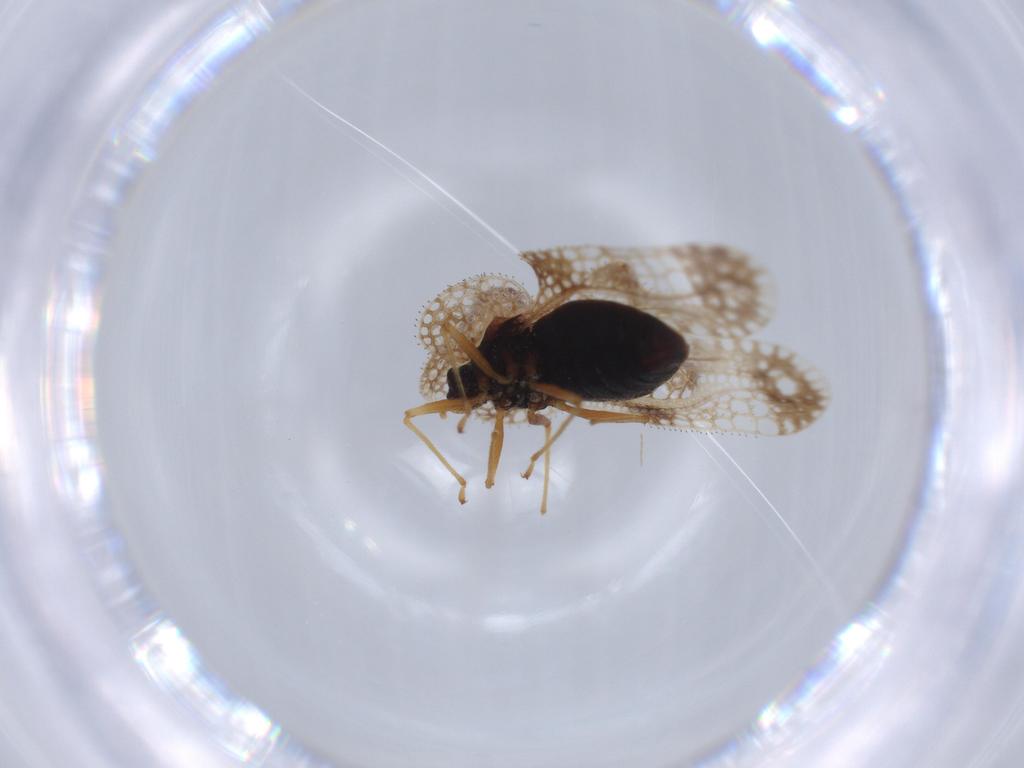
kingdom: Animalia
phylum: Arthropoda
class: Insecta
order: Hemiptera
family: Tingidae
